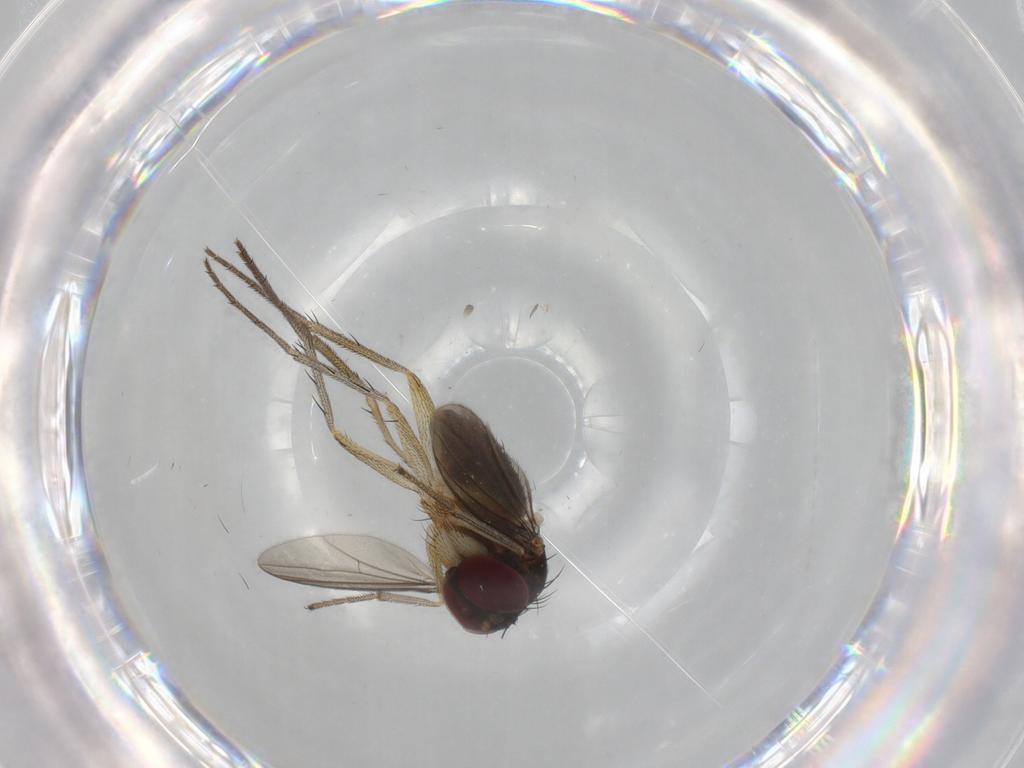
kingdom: Animalia
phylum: Arthropoda
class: Insecta
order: Diptera
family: Dolichopodidae
